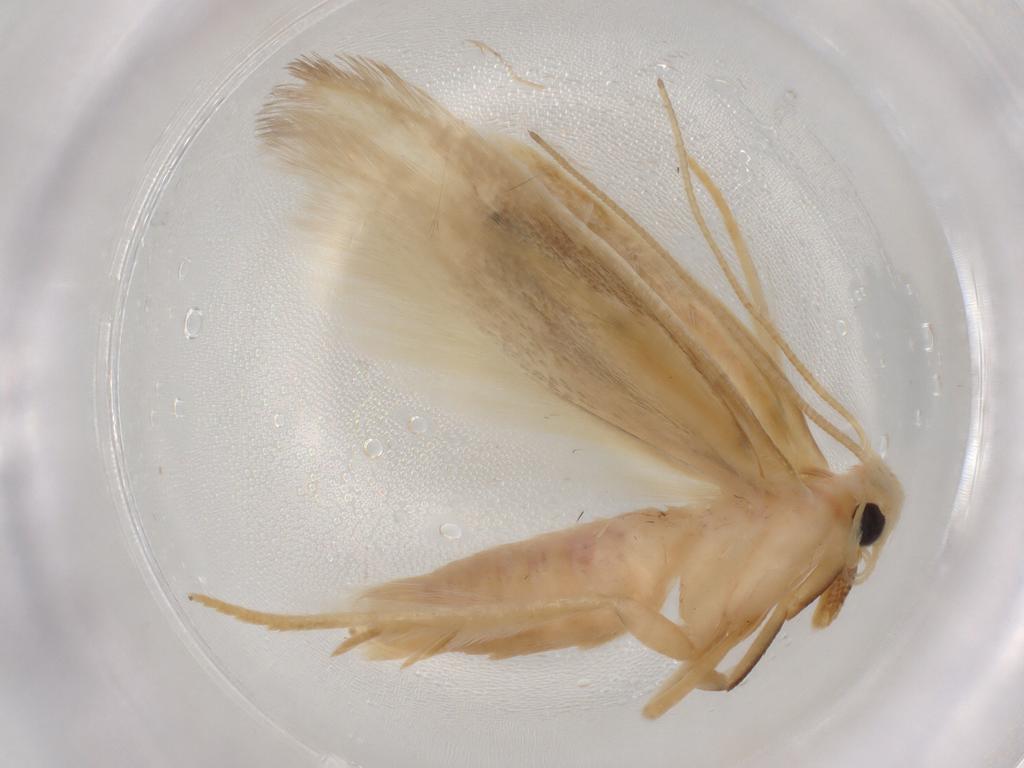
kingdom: Animalia
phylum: Arthropoda
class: Insecta
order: Lepidoptera
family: Geometridae
